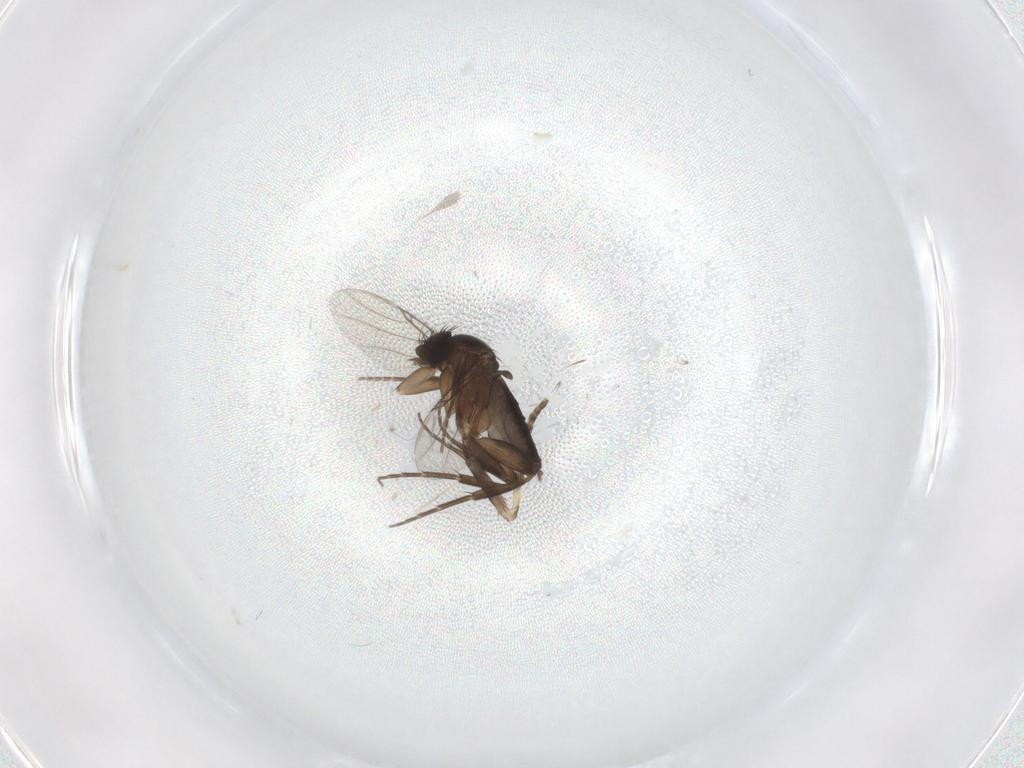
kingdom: Animalia
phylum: Arthropoda
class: Insecta
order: Diptera
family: Phoridae
